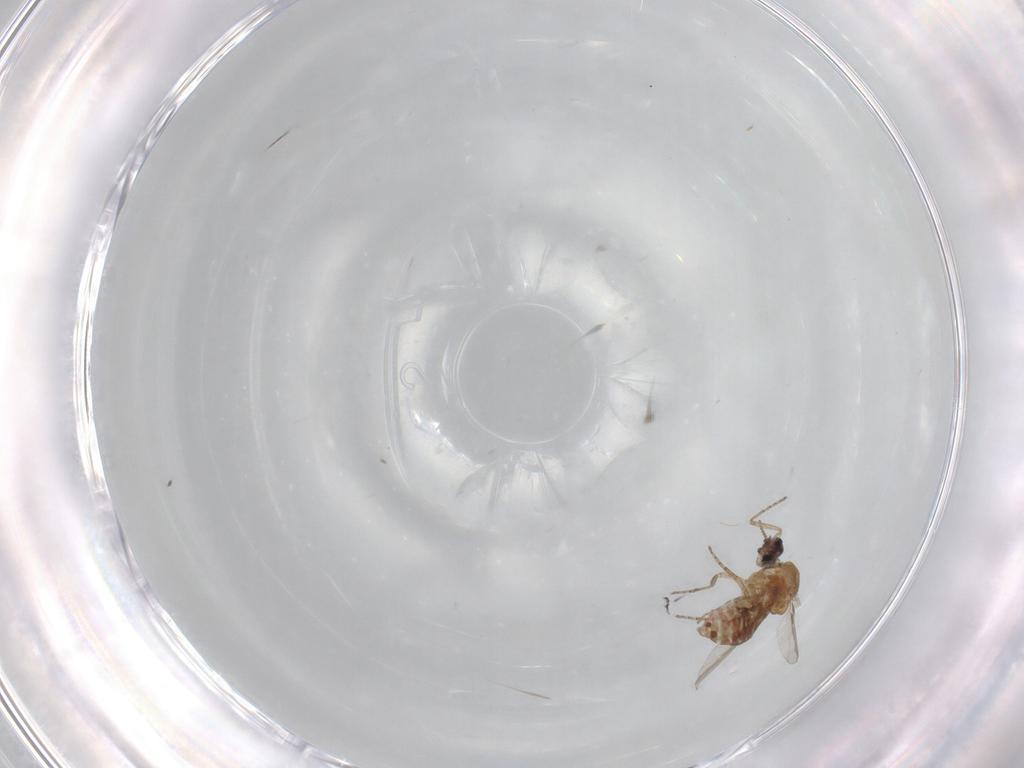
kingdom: Animalia
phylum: Arthropoda
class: Insecta
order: Diptera
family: Ceratopogonidae
